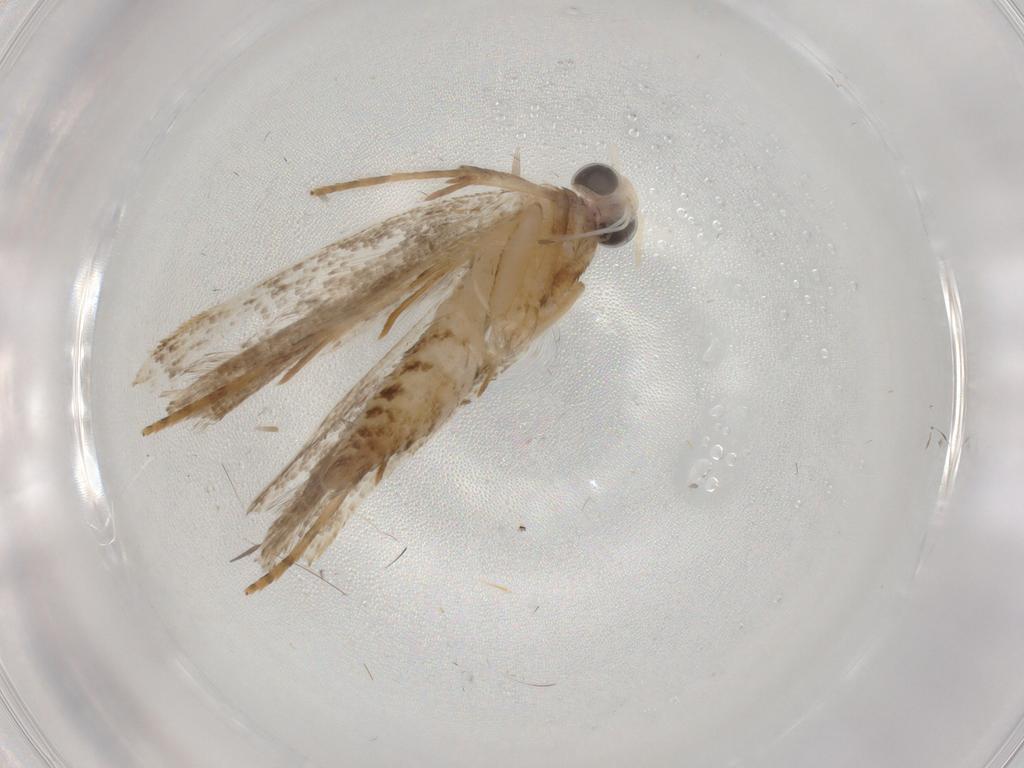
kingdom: Animalia
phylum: Arthropoda
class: Insecta
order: Lepidoptera
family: Gelechiidae
